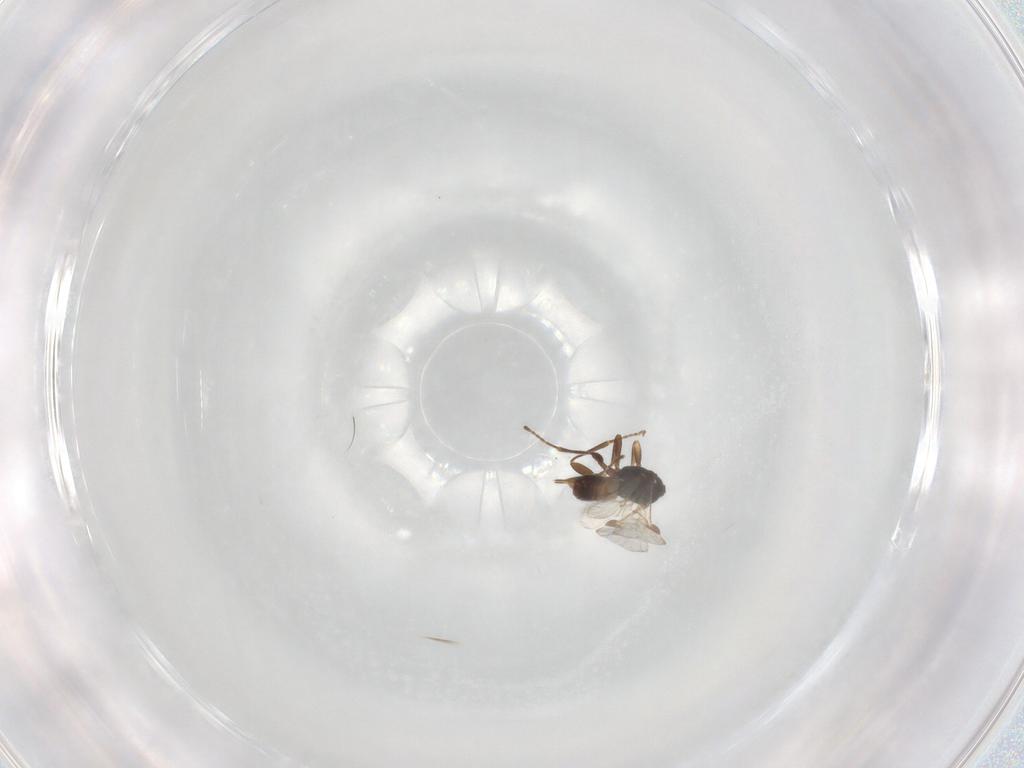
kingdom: Animalia
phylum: Arthropoda
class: Insecta
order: Hymenoptera
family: Braconidae
